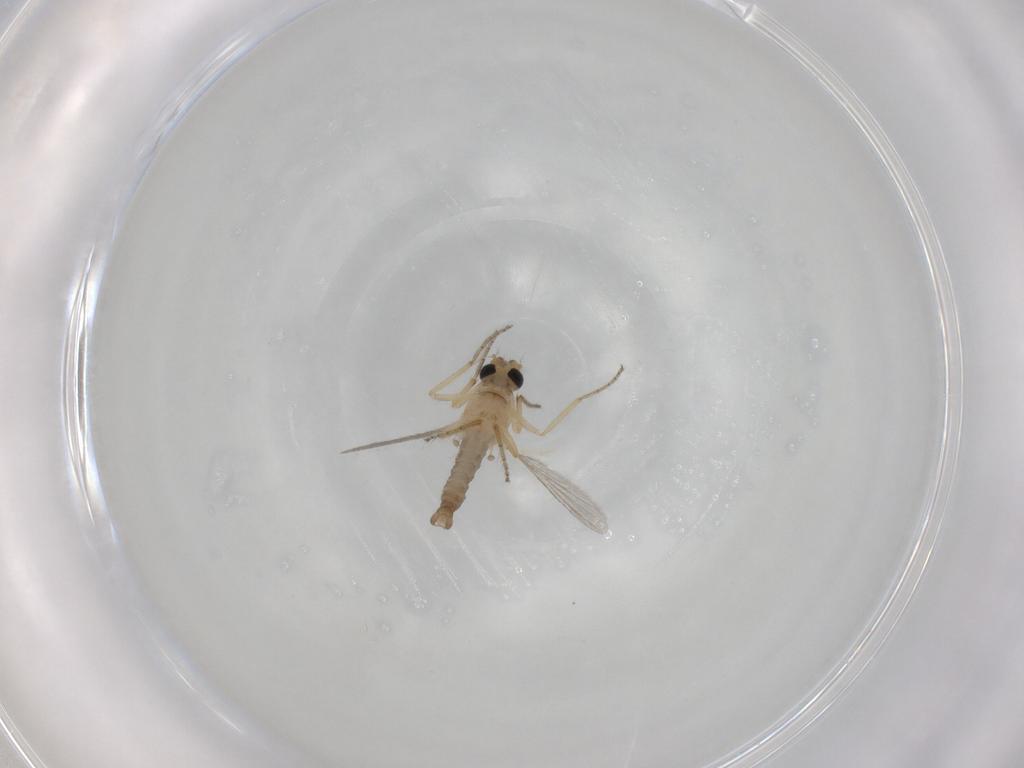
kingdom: Animalia
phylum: Arthropoda
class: Insecta
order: Diptera
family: Ceratopogonidae
